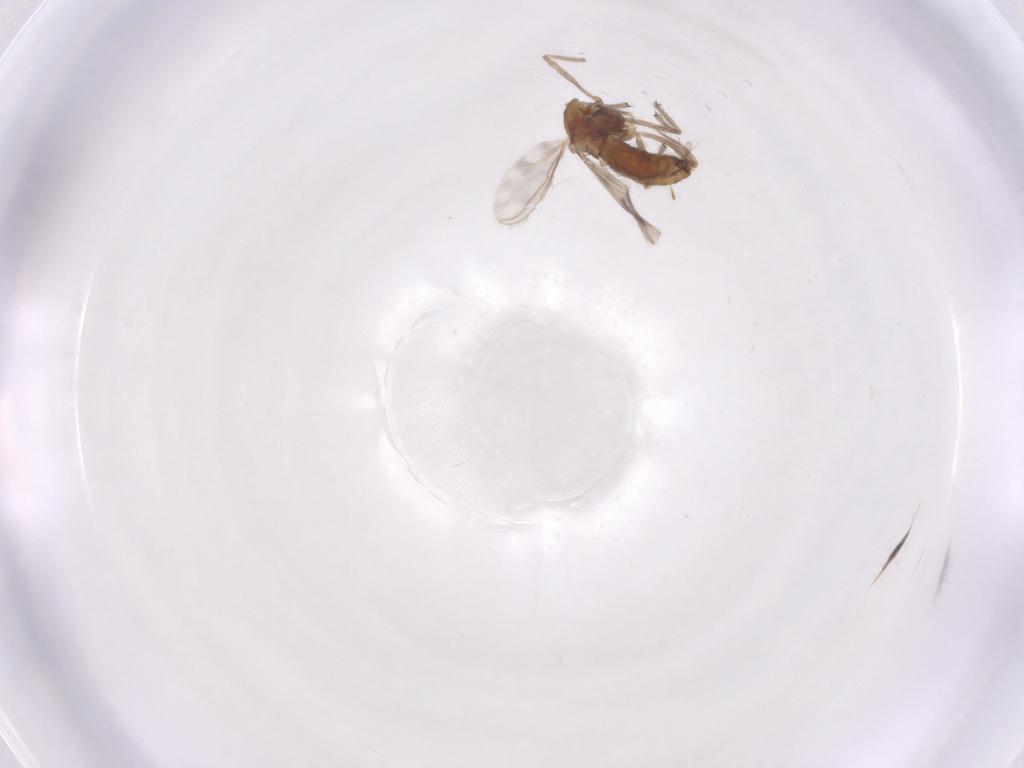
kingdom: Animalia
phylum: Arthropoda
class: Insecta
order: Diptera
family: Chironomidae
